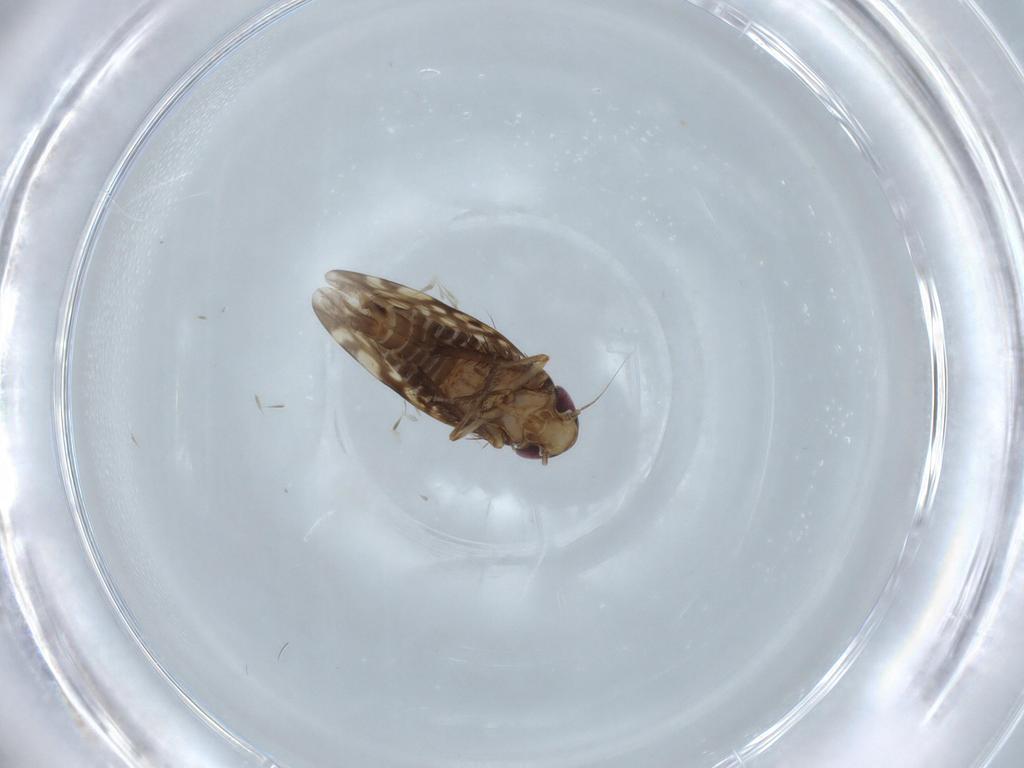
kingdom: Animalia
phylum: Arthropoda
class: Insecta
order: Hemiptera
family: Cicadellidae
